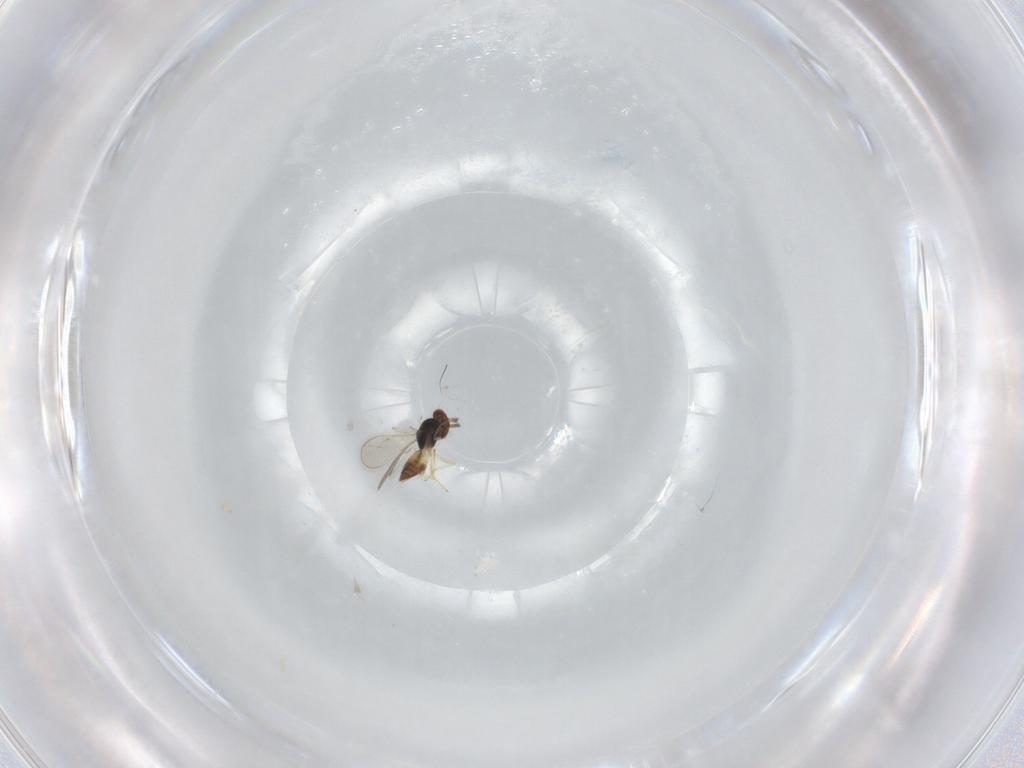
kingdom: Animalia
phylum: Arthropoda
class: Insecta
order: Hymenoptera
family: Eulophidae
